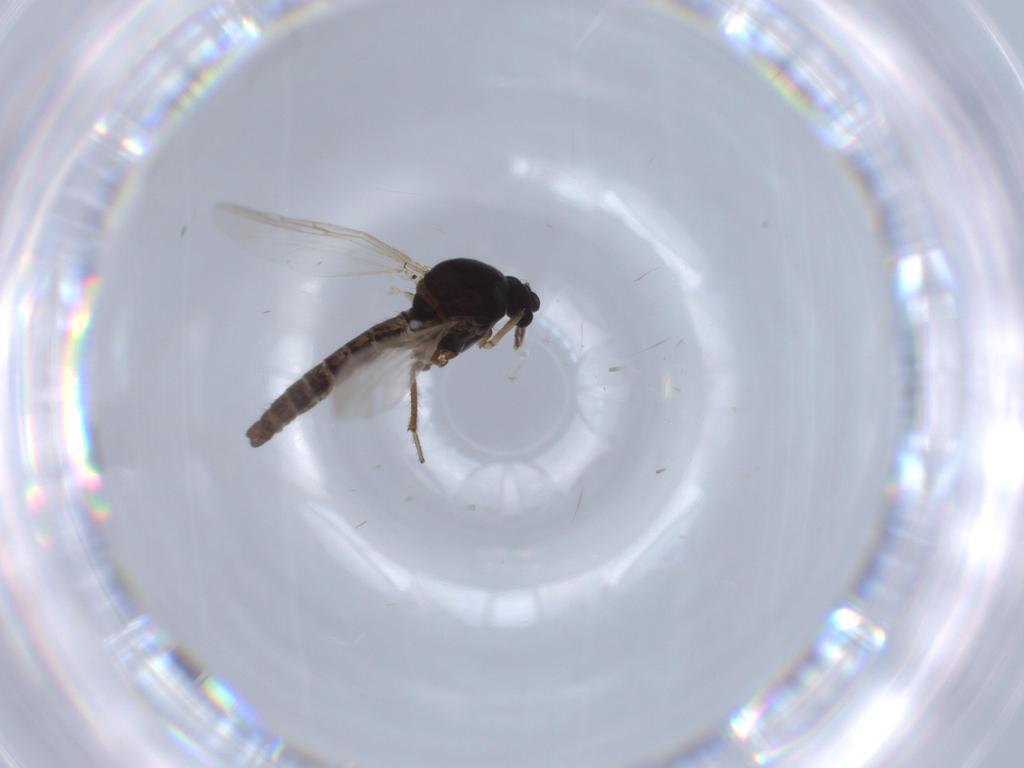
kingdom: Animalia
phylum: Arthropoda
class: Insecta
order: Diptera
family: Ceratopogonidae
